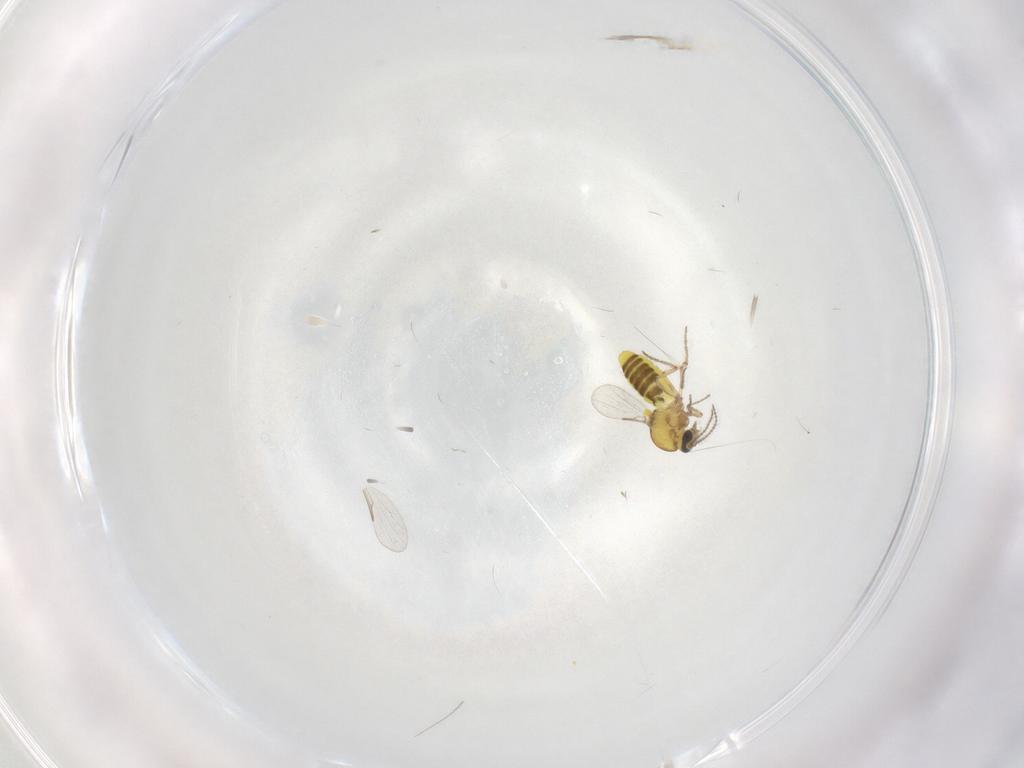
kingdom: Animalia
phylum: Arthropoda
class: Insecta
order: Diptera
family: Ceratopogonidae
